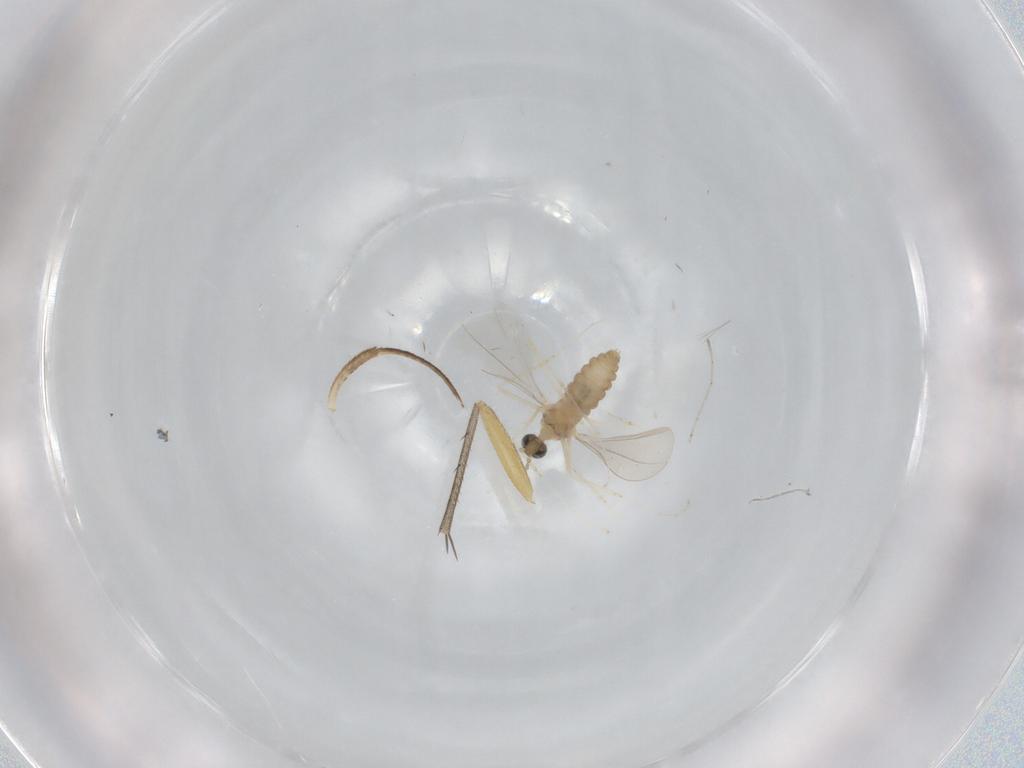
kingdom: Animalia
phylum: Arthropoda
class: Insecta
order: Diptera
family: Cecidomyiidae
